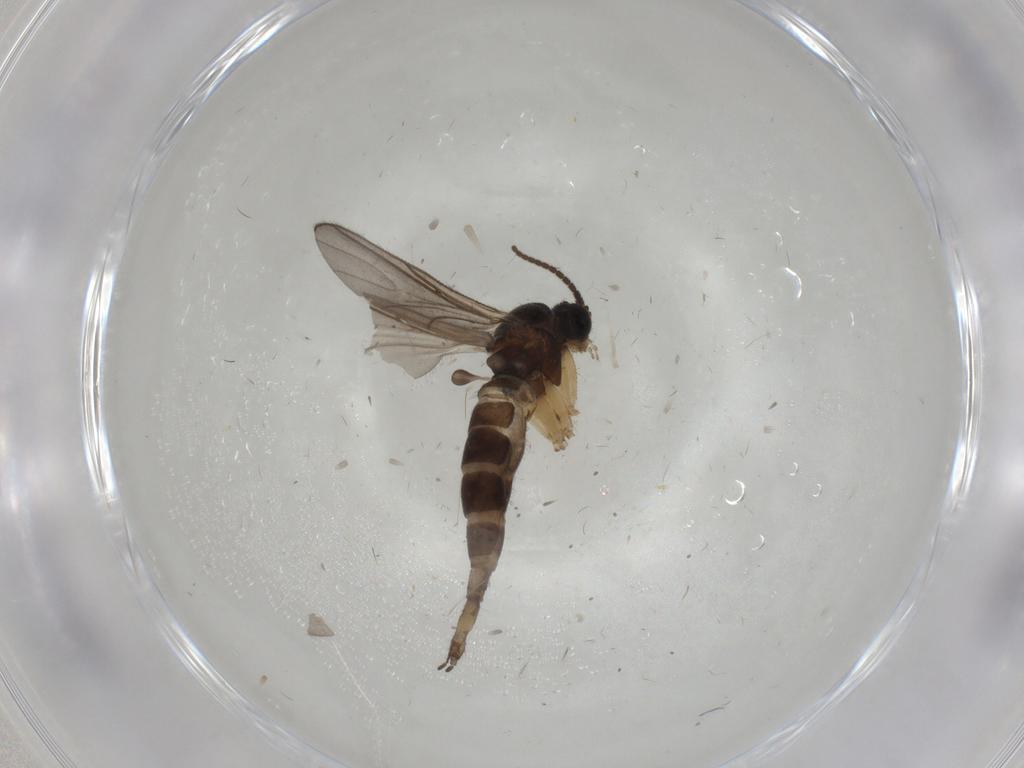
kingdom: Animalia
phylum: Arthropoda
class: Insecta
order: Diptera
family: Sciaridae
